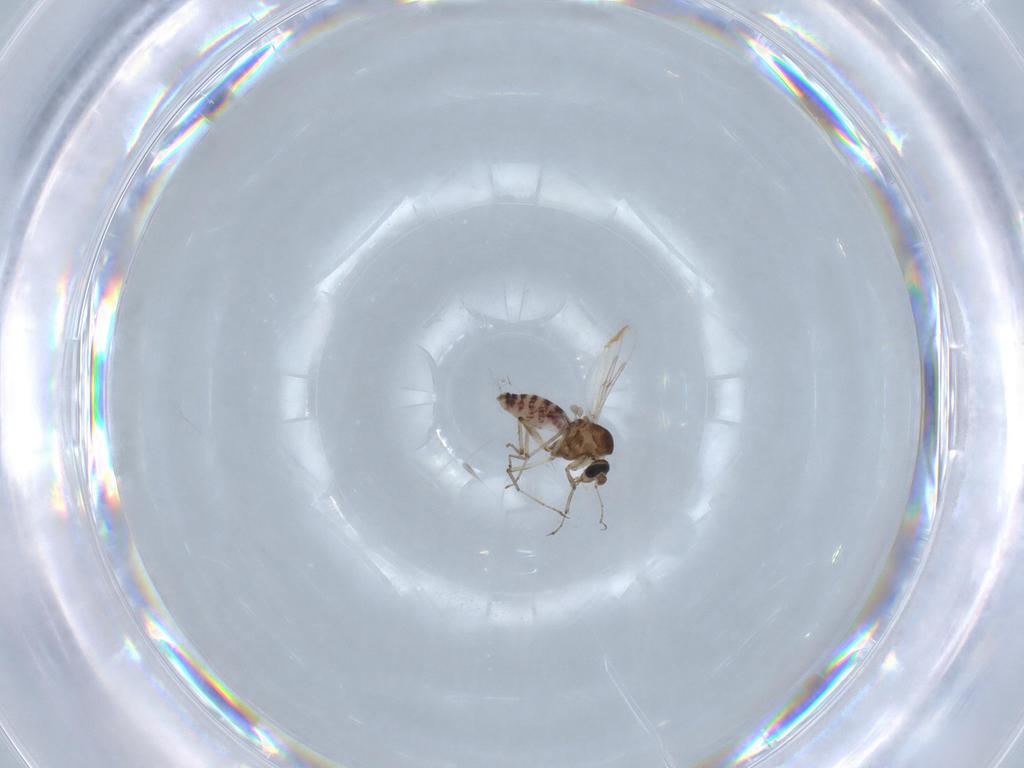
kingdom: Animalia
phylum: Arthropoda
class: Insecta
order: Diptera
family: Ceratopogonidae
